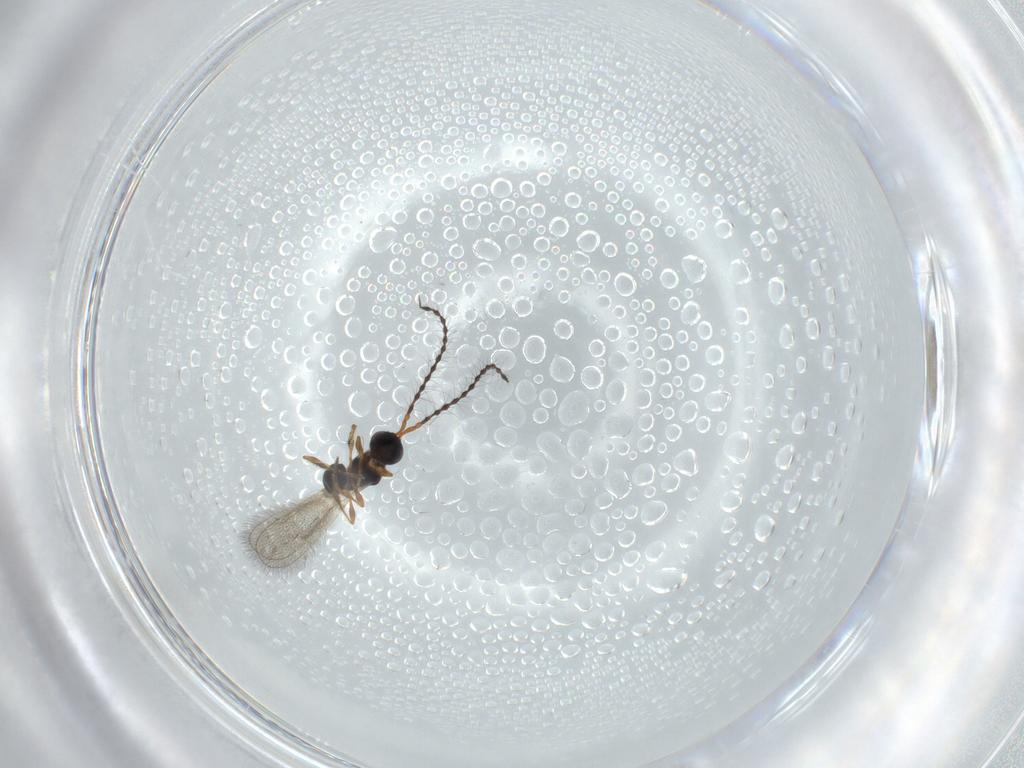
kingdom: Animalia
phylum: Arthropoda
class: Insecta
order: Hymenoptera
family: Diapriidae
